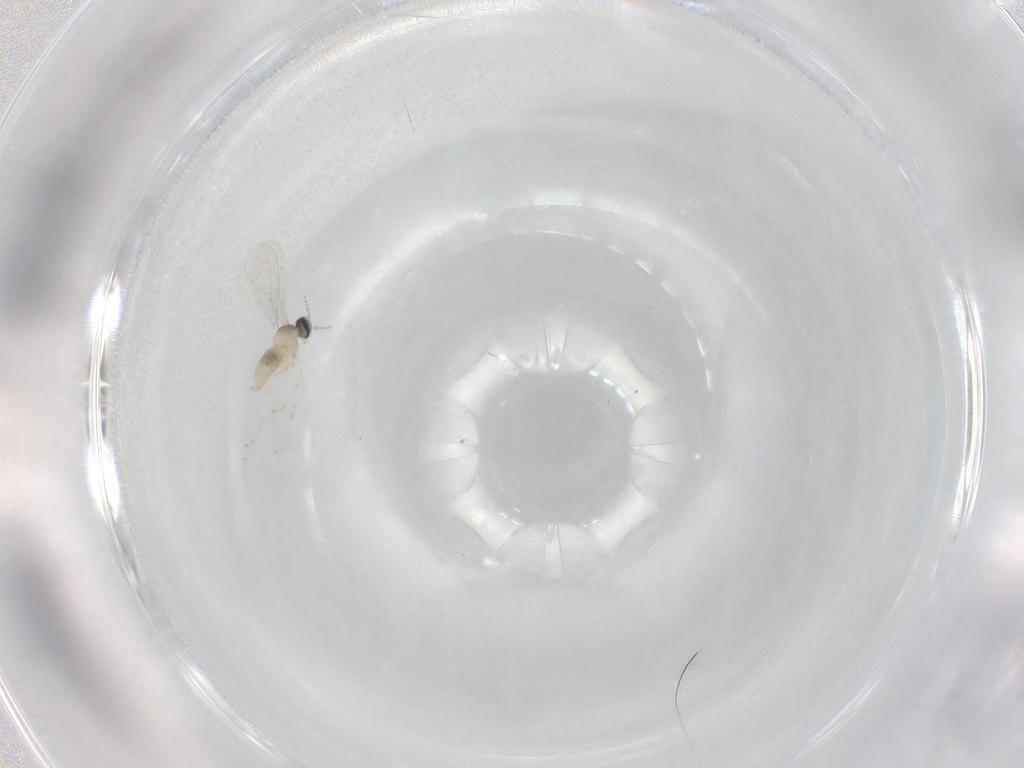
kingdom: Animalia
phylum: Arthropoda
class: Insecta
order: Diptera
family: Cecidomyiidae
